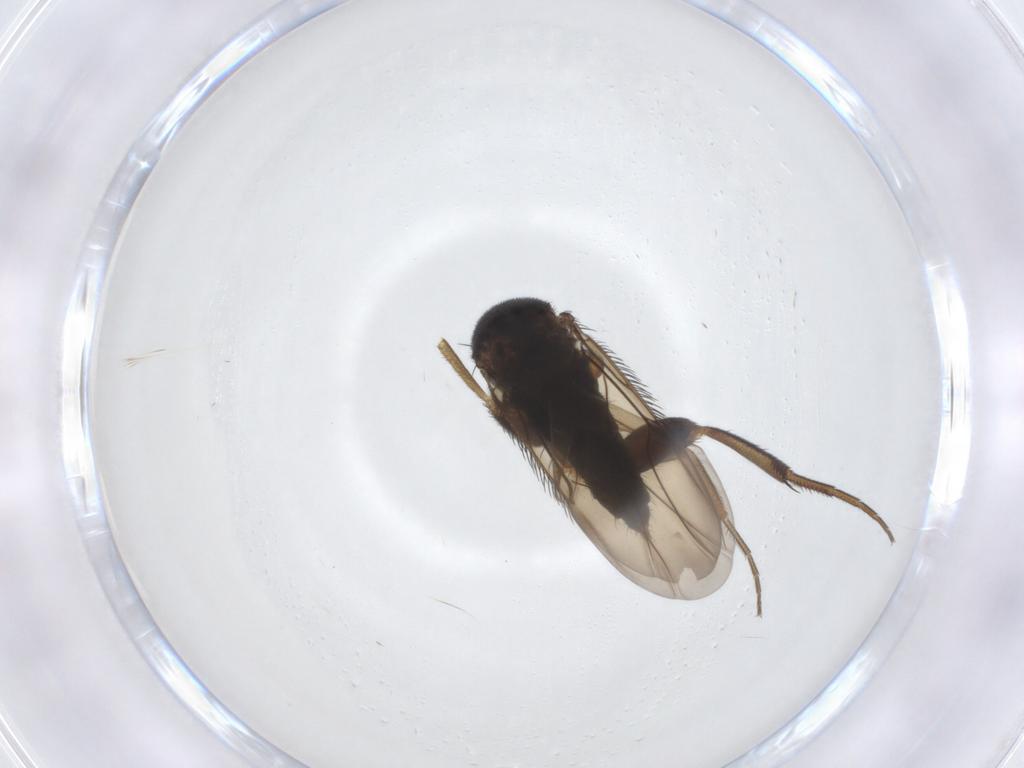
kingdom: Animalia
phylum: Arthropoda
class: Insecta
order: Diptera
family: Phoridae
